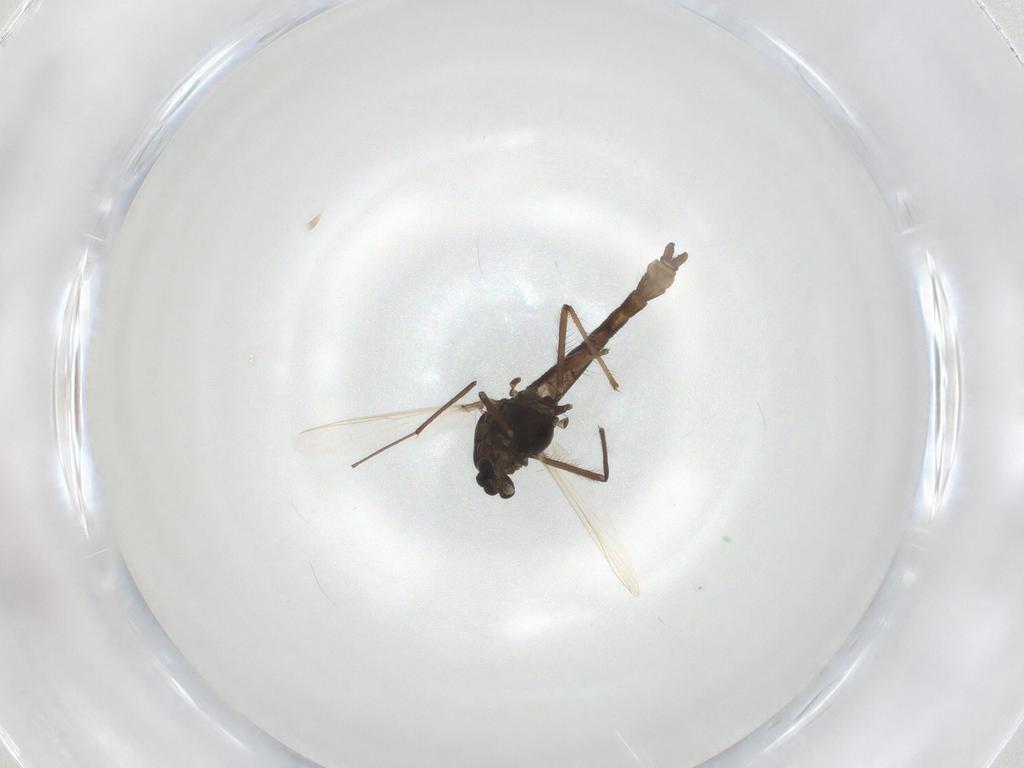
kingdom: Animalia
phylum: Arthropoda
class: Insecta
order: Diptera
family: Chironomidae
